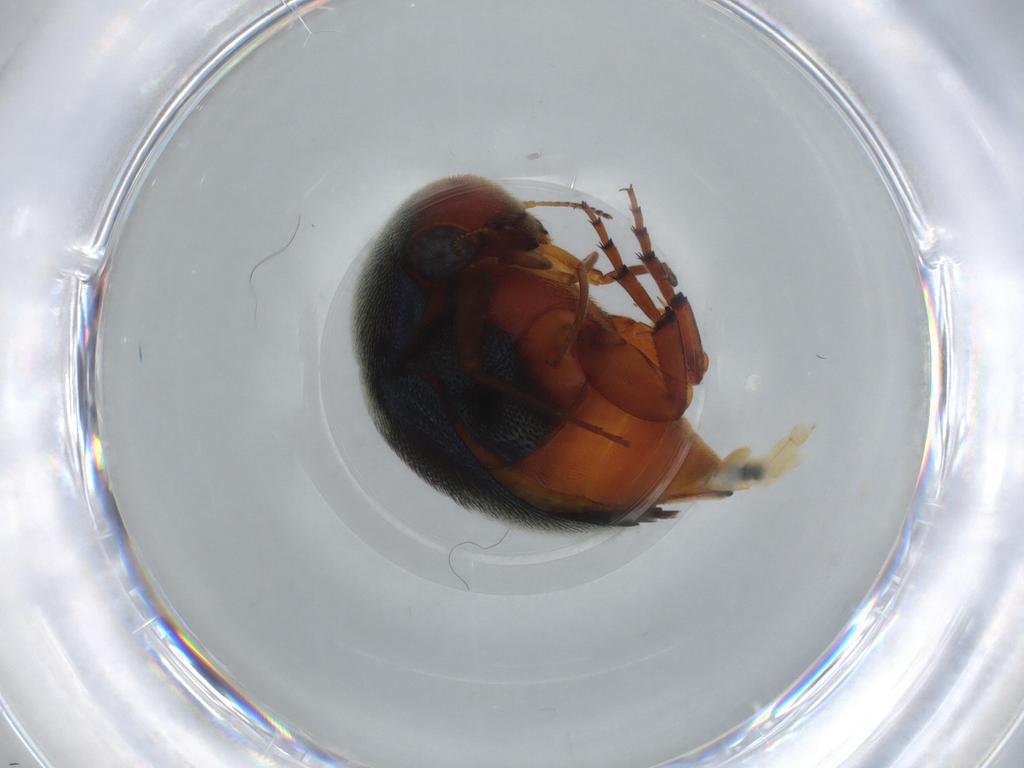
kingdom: Animalia
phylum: Arthropoda
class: Insecta
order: Coleoptera
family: Mordellidae
